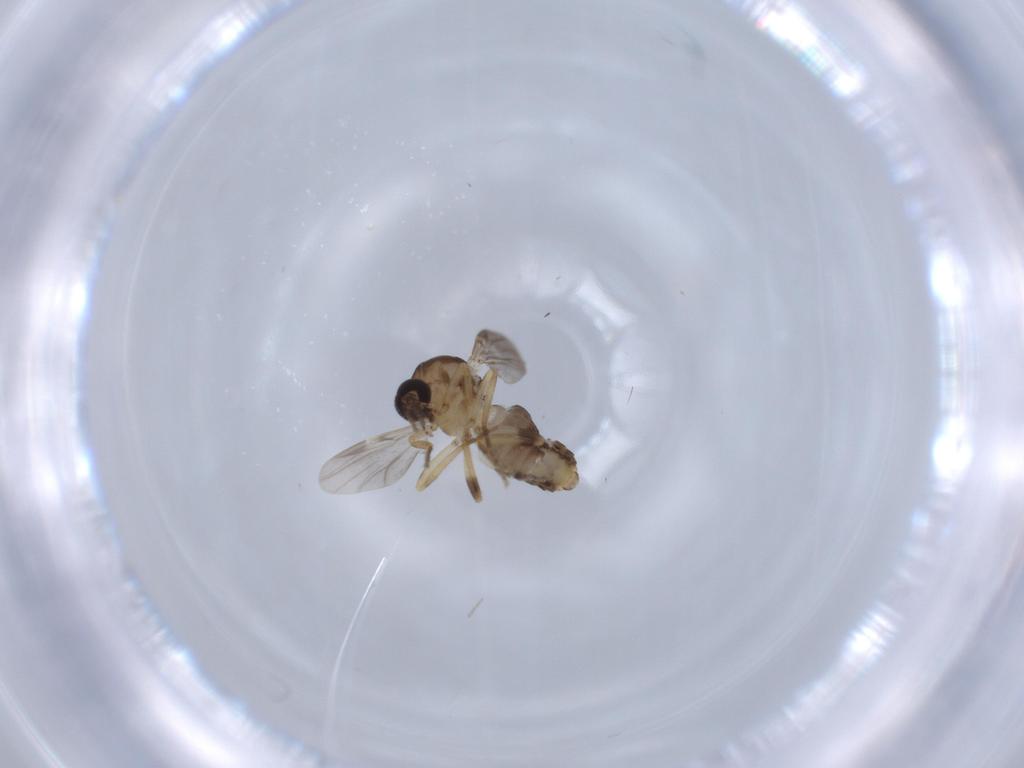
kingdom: Animalia
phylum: Arthropoda
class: Insecta
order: Diptera
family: Ceratopogonidae
